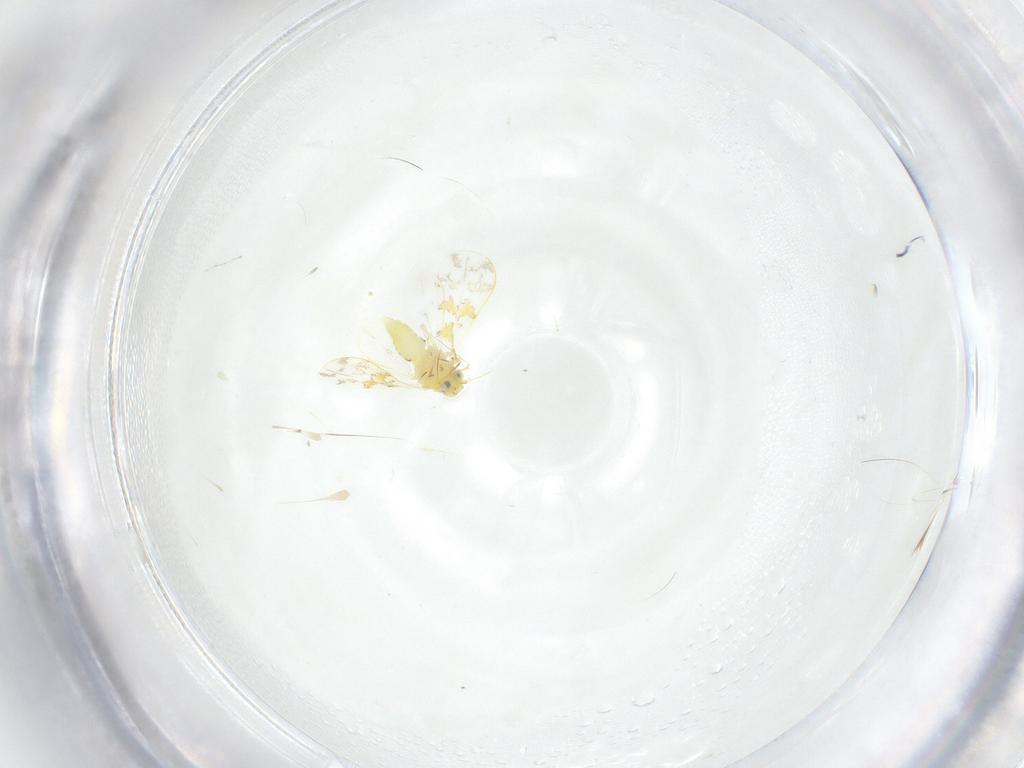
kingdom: Animalia
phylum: Arthropoda
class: Insecta
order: Hemiptera
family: Aleyrodidae
